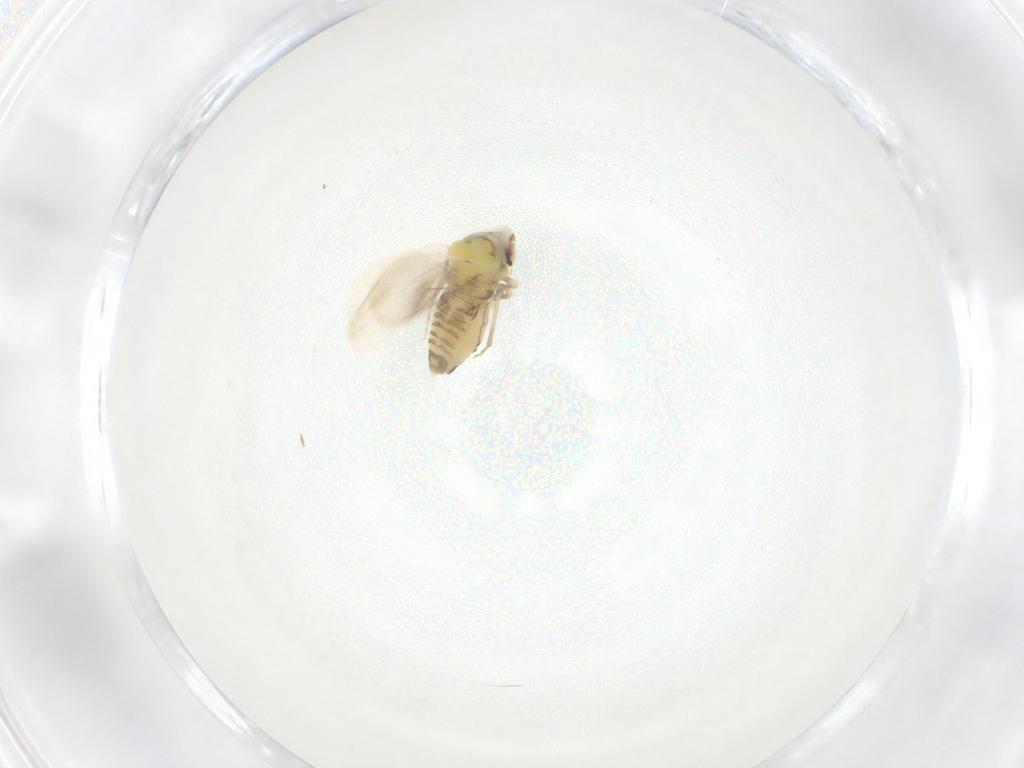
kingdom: Animalia
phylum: Arthropoda
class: Insecta
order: Hemiptera
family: Aleyrodidae
